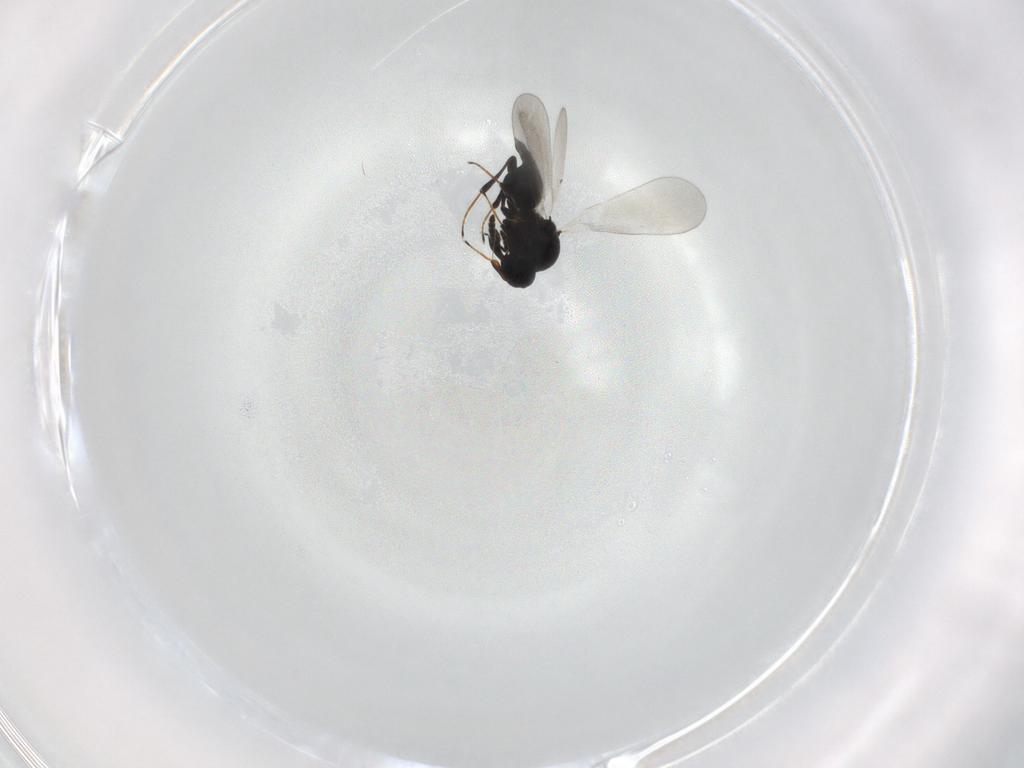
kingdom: Animalia
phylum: Arthropoda
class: Insecta
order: Hymenoptera
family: Platygastridae
